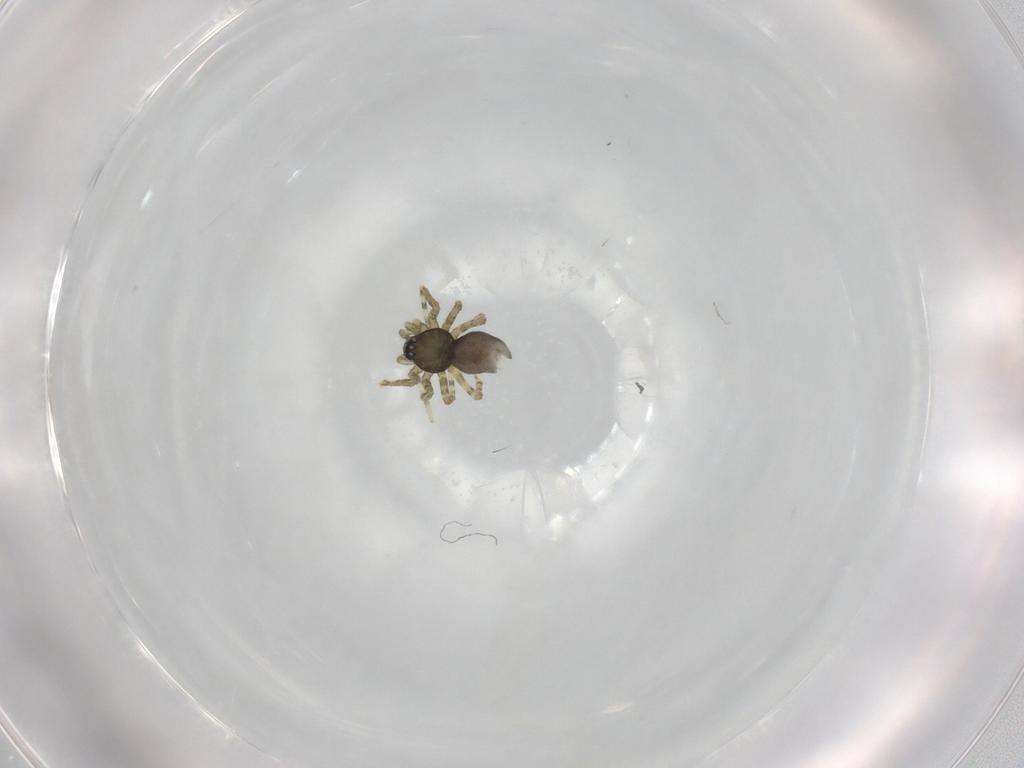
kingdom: Animalia
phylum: Arthropoda
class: Arachnida
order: Araneae
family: Linyphiidae
